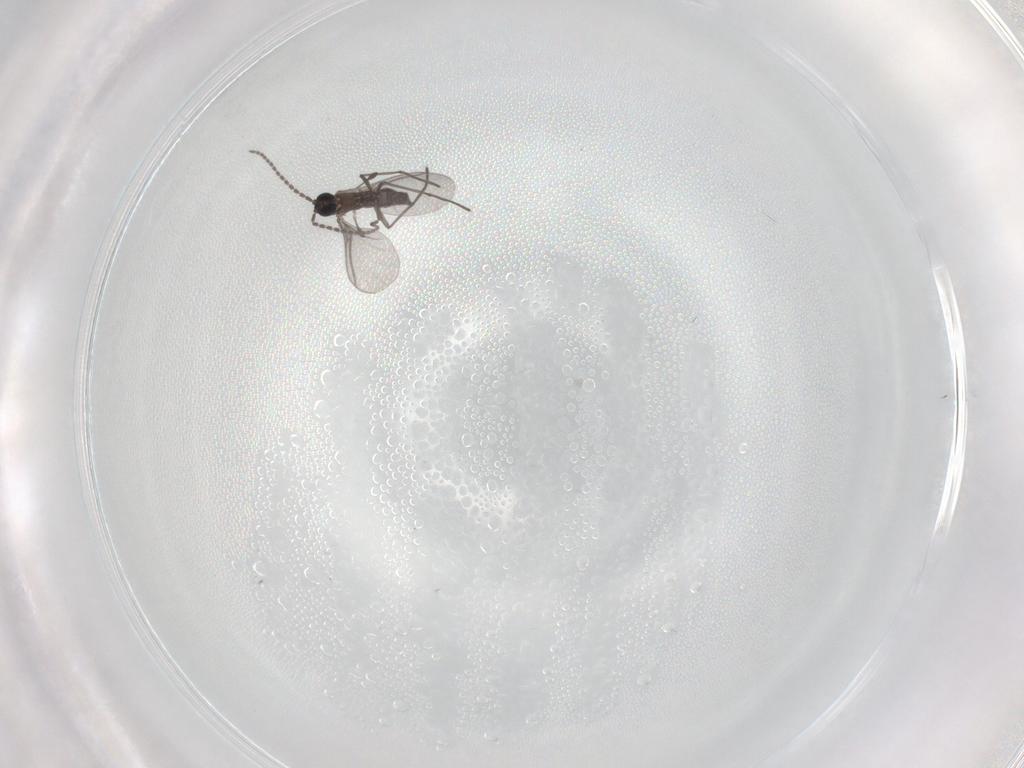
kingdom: Animalia
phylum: Arthropoda
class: Insecta
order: Diptera
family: Sciaridae
